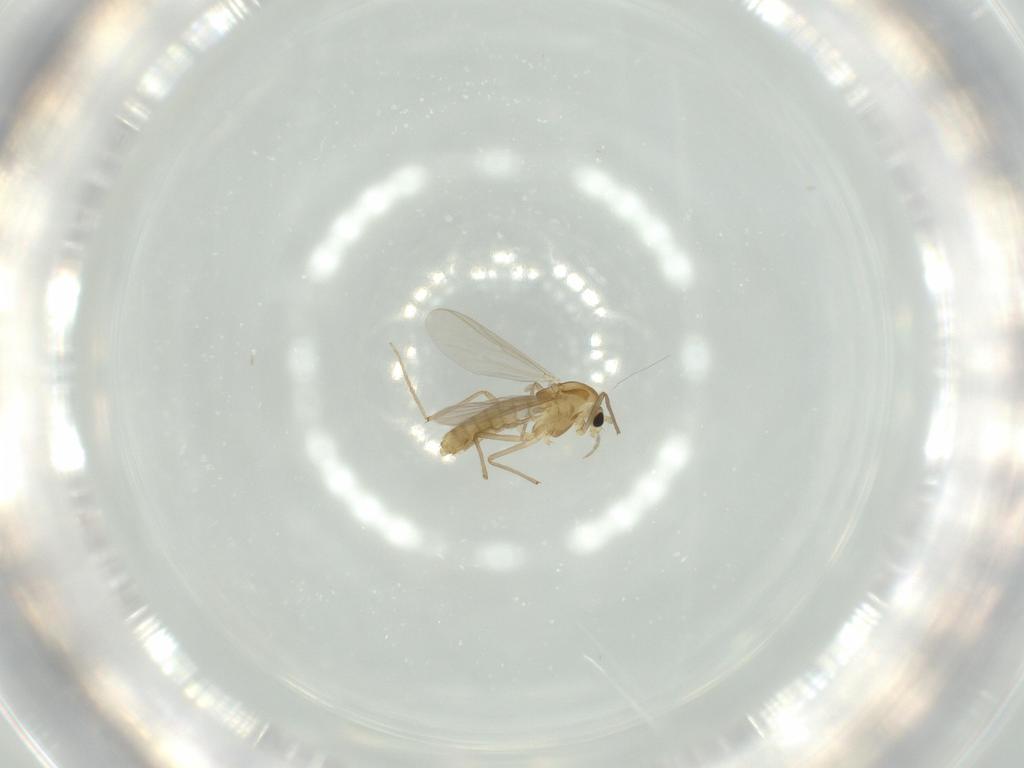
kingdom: Animalia
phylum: Arthropoda
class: Insecta
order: Diptera
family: Chironomidae
